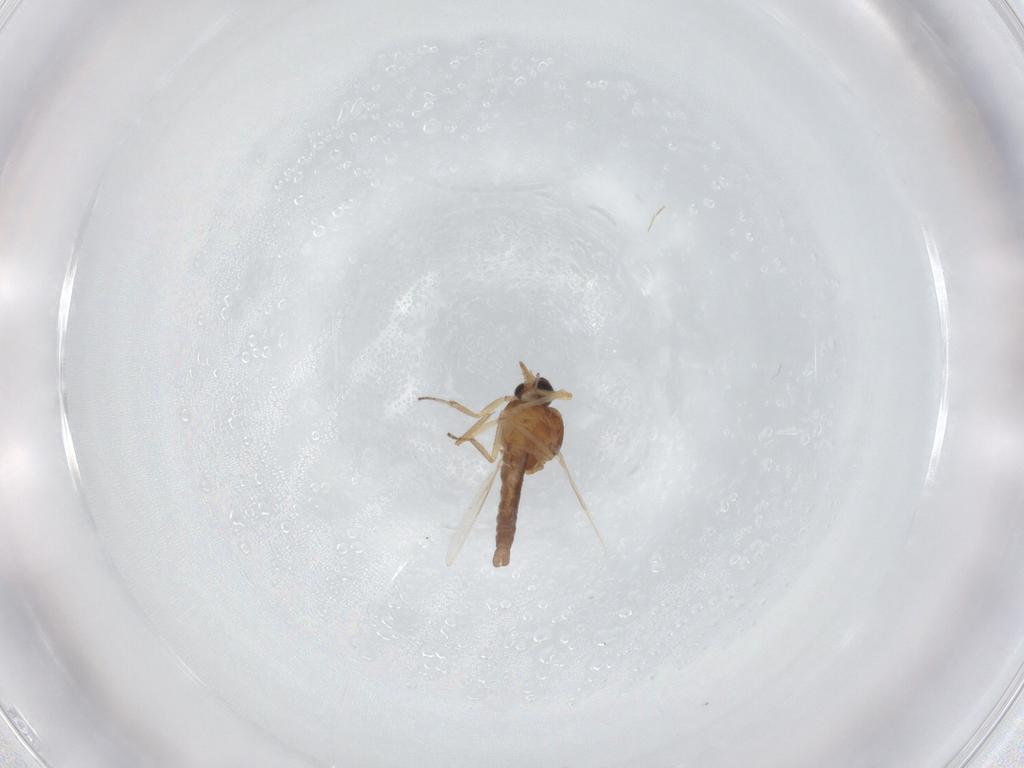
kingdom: Animalia
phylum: Arthropoda
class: Insecta
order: Diptera
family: Ceratopogonidae
